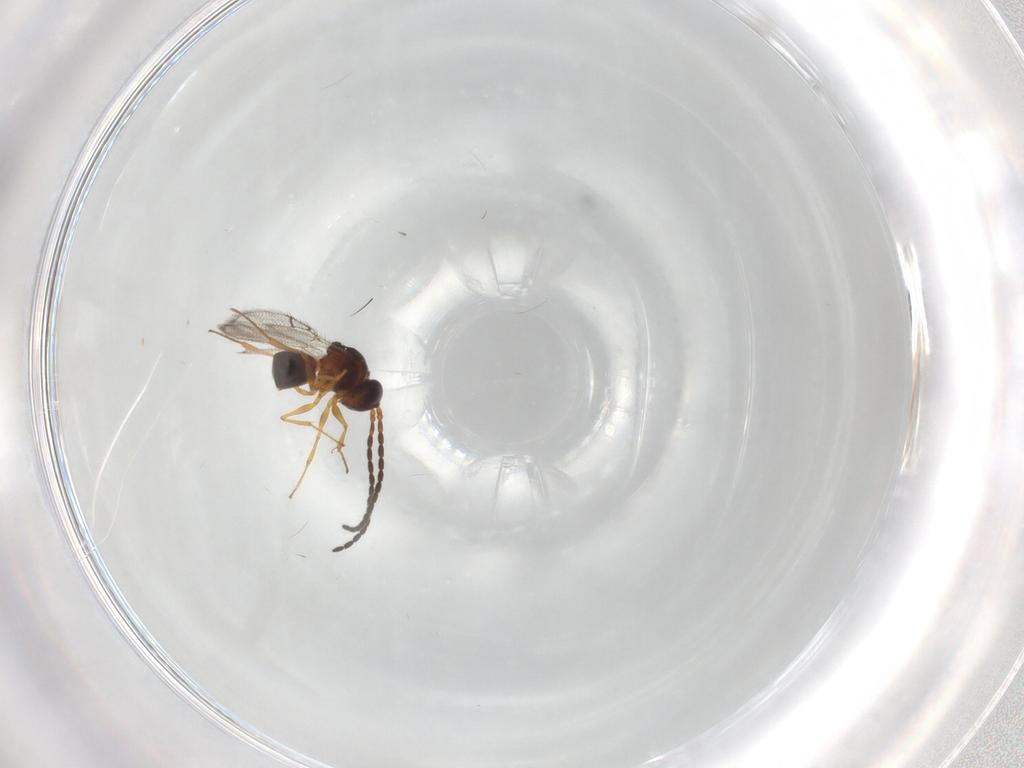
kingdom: Animalia
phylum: Arthropoda
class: Insecta
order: Hymenoptera
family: Figitidae
